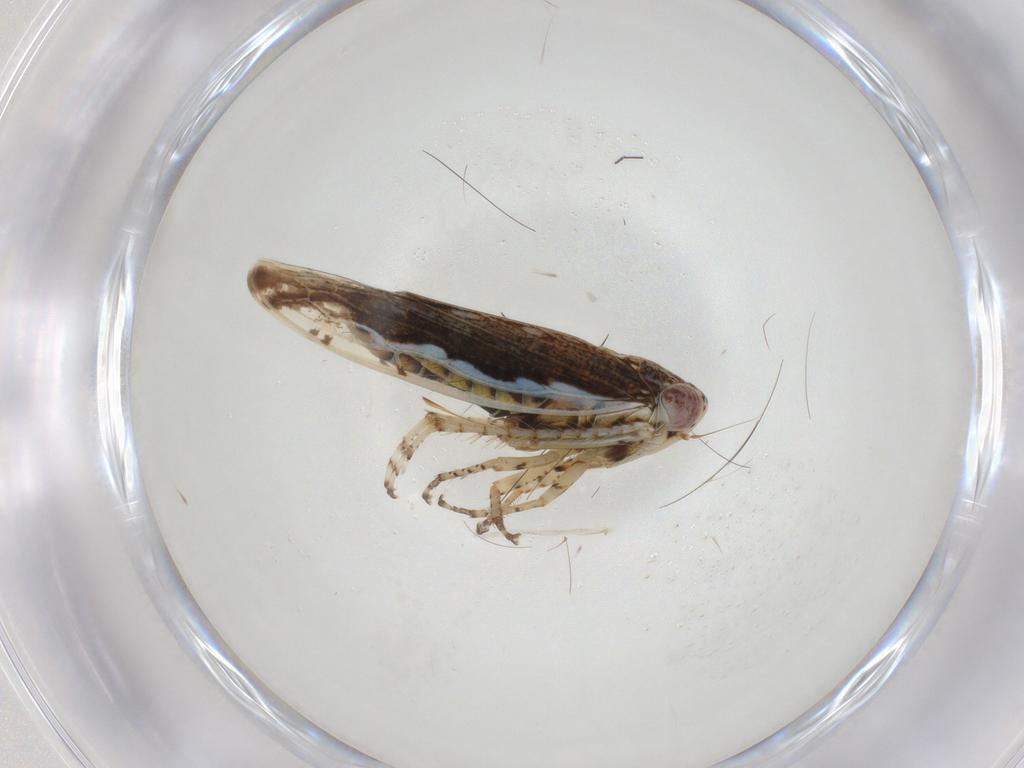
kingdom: Animalia
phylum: Arthropoda
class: Insecta
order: Hemiptera
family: Cicadellidae
